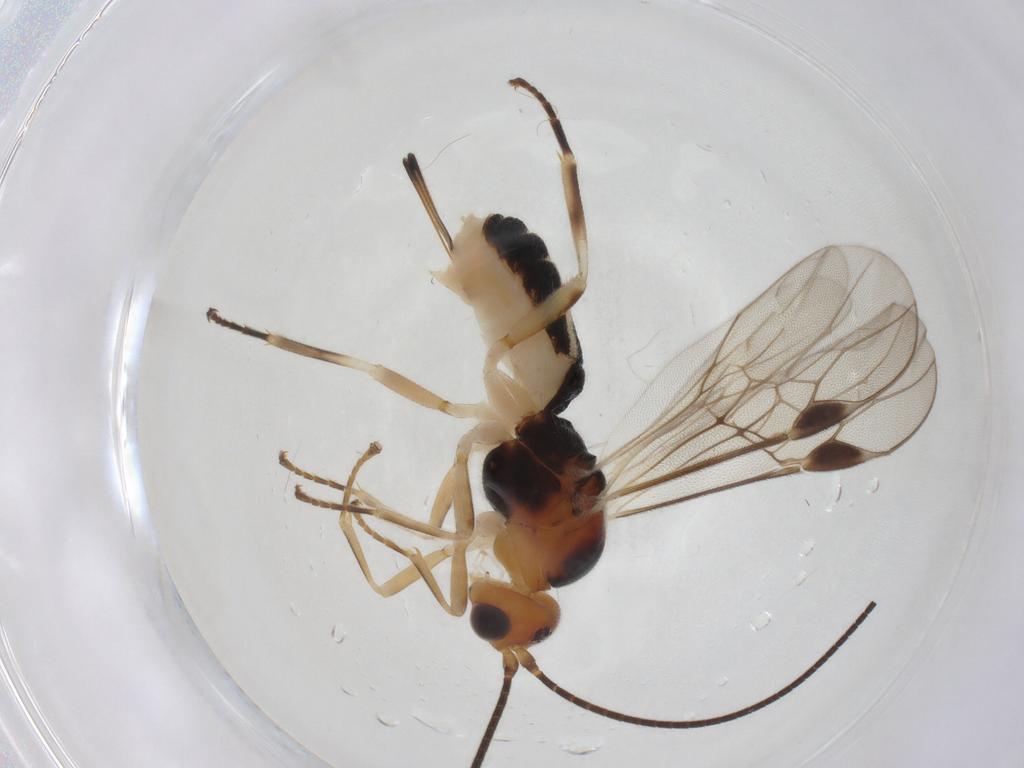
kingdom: Animalia
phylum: Arthropoda
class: Insecta
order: Hymenoptera
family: Braconidae
